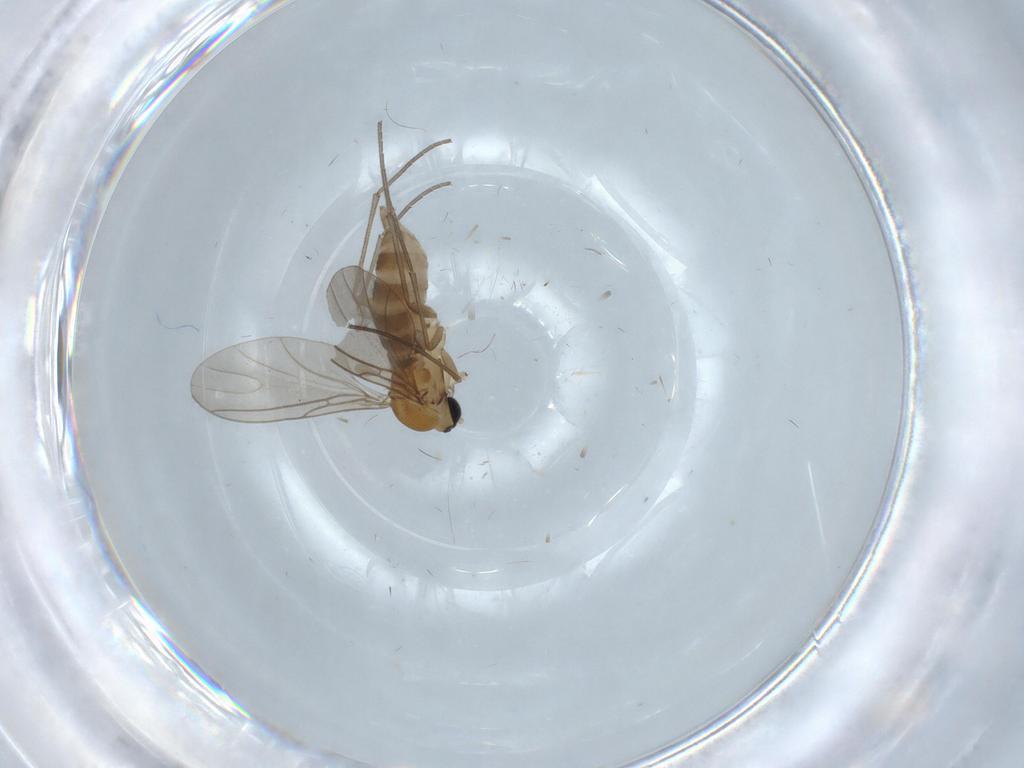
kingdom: Animalia
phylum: Arthropoda
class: Insecta
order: Diptera
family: Sciaridae
